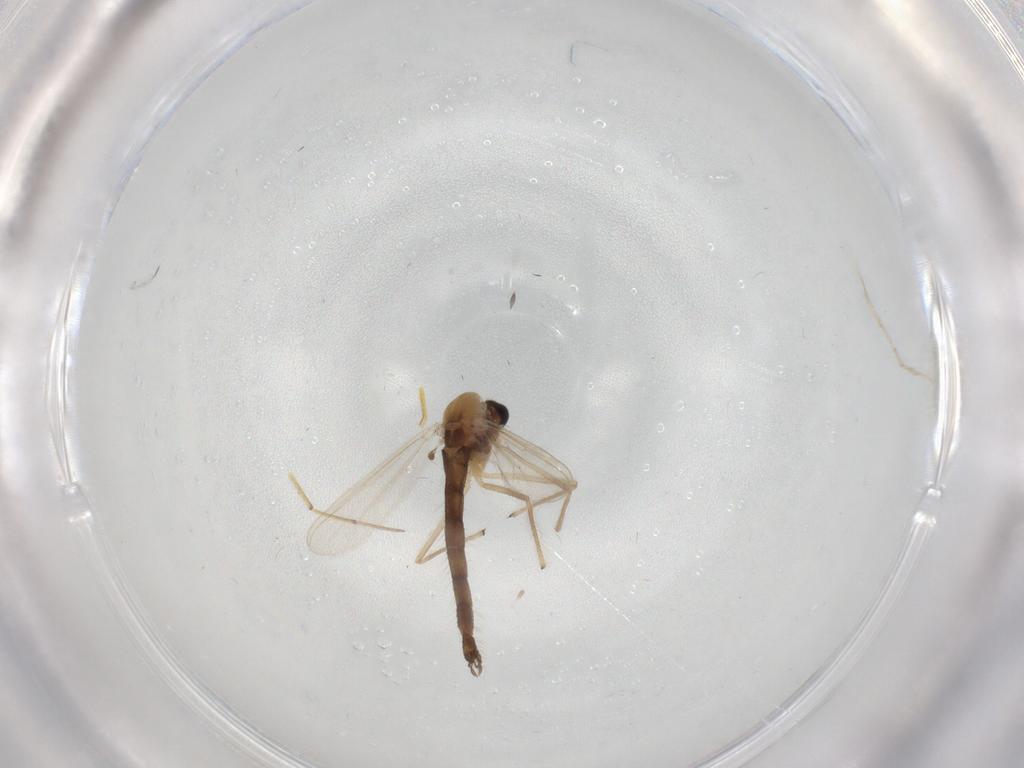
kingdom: Animalia
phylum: Arthropoda
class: Insecta
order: Diptera
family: Chironomidae
